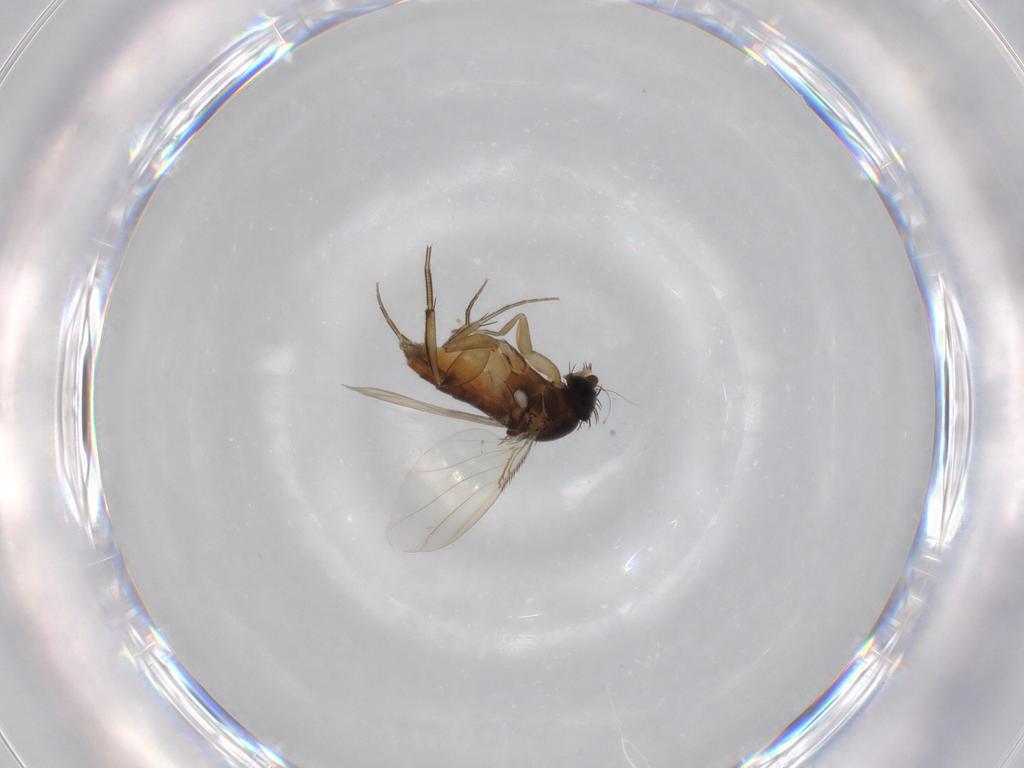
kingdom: Animalia
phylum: Arthropoda
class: Insecta
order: Diptera
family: Phoridae
